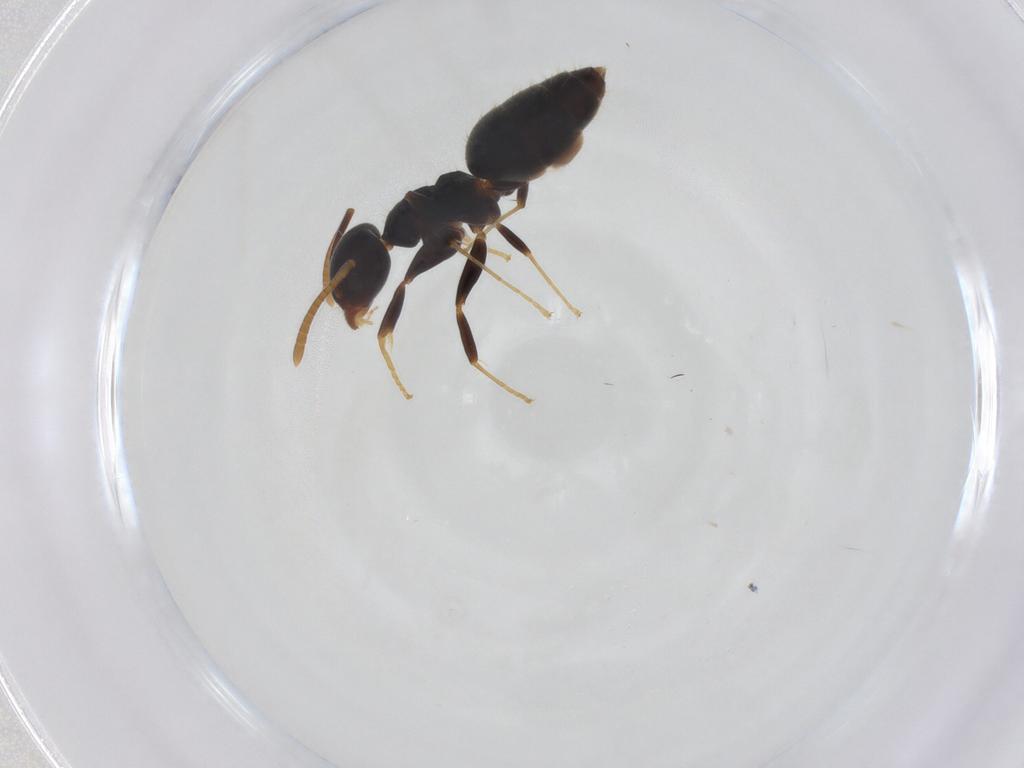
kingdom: Animalia
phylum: Arthropoda
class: Insecta
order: Hymenoptera
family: Formicidae
